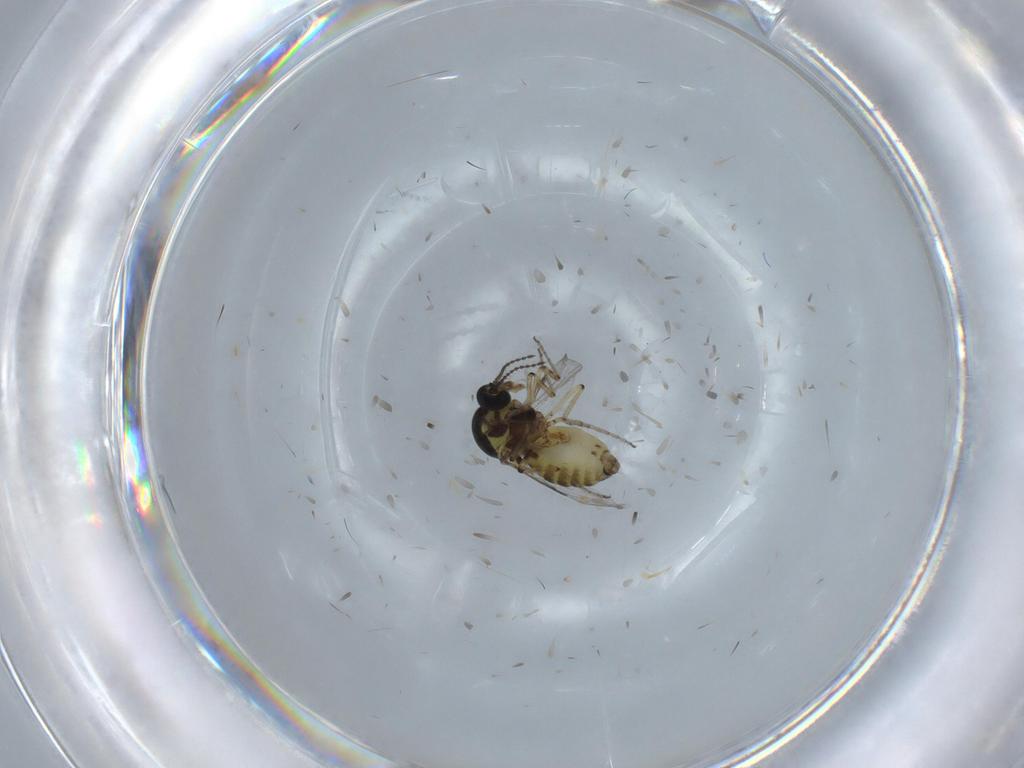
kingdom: Animalia
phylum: Arthropoda
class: Insecta
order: Diptera
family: Stratiomyidae
